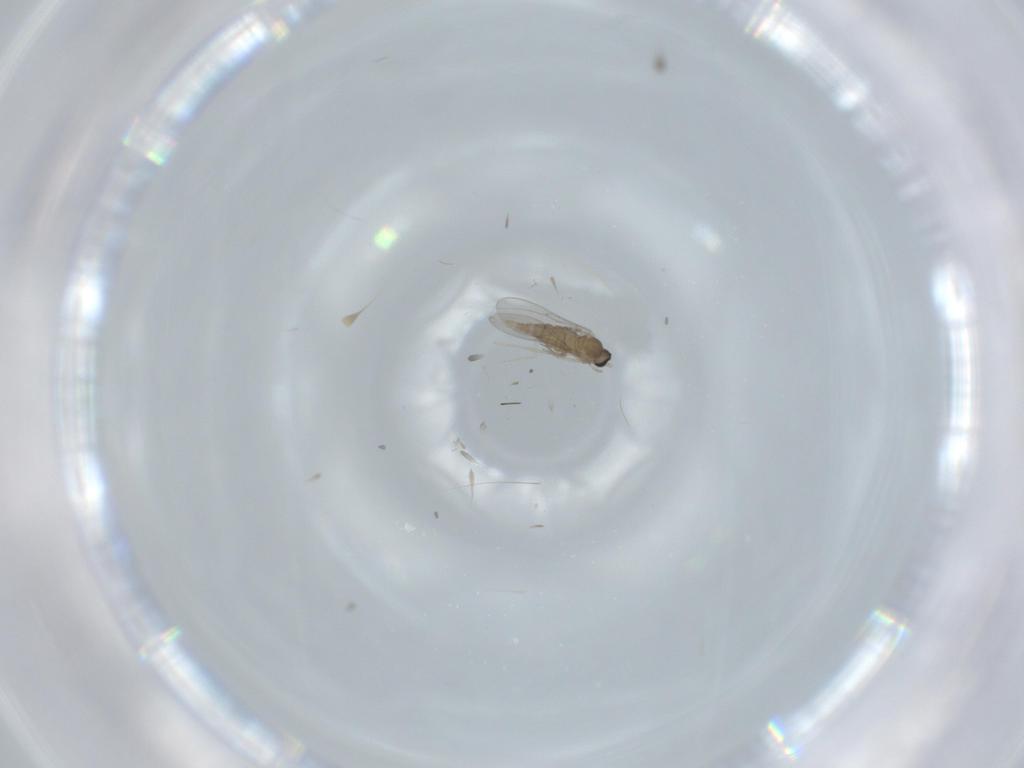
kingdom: Animalia
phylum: Arthropoda
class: Insecta
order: Diptera
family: Cecidomyiidae
